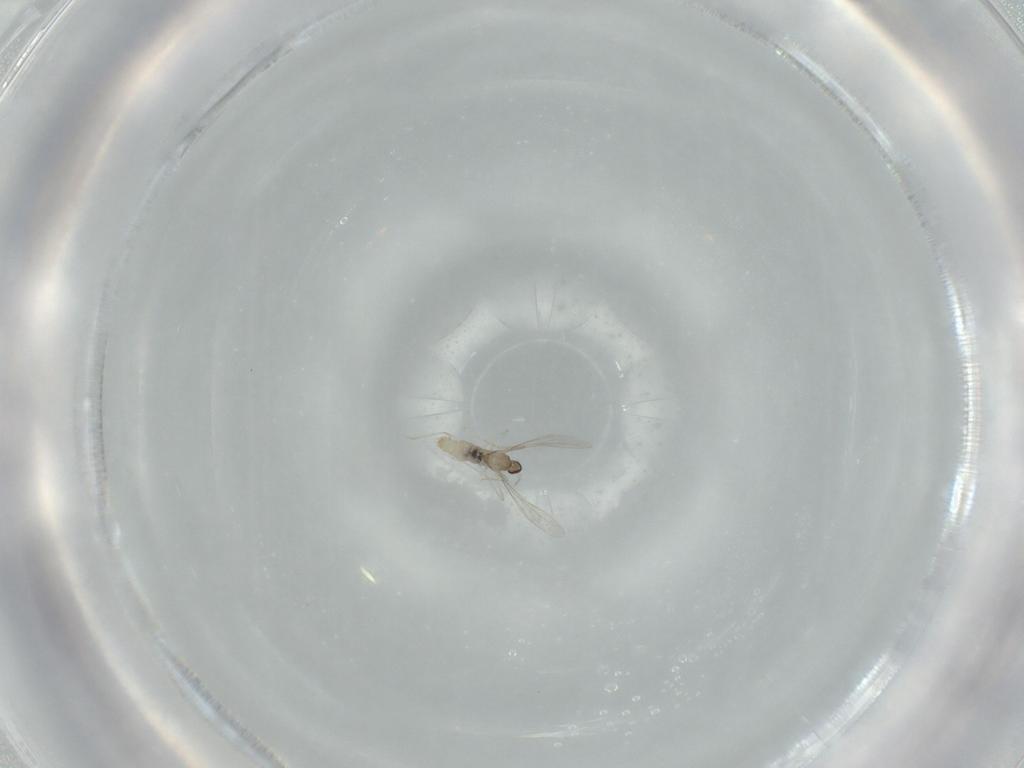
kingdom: Animalia
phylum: Arthropoda
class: Insecta
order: Diptera
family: Cecidomyiidae
